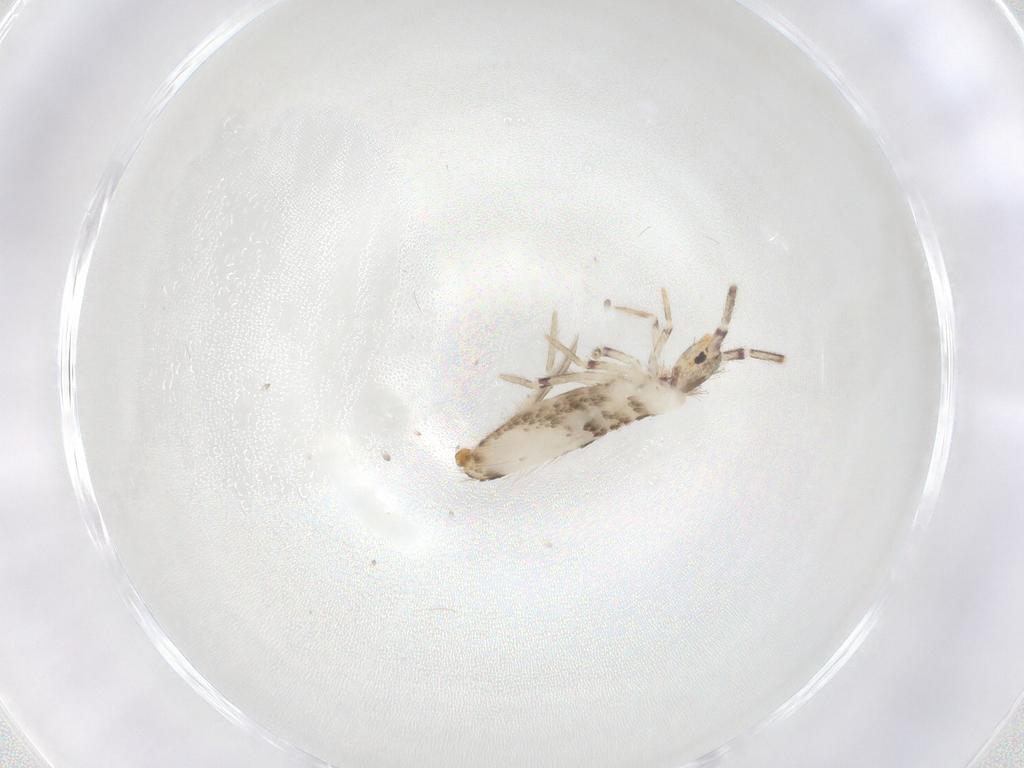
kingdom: Animalia
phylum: Arthropoda
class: Collembola
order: Entomobryomorpha
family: Entomobryidae
